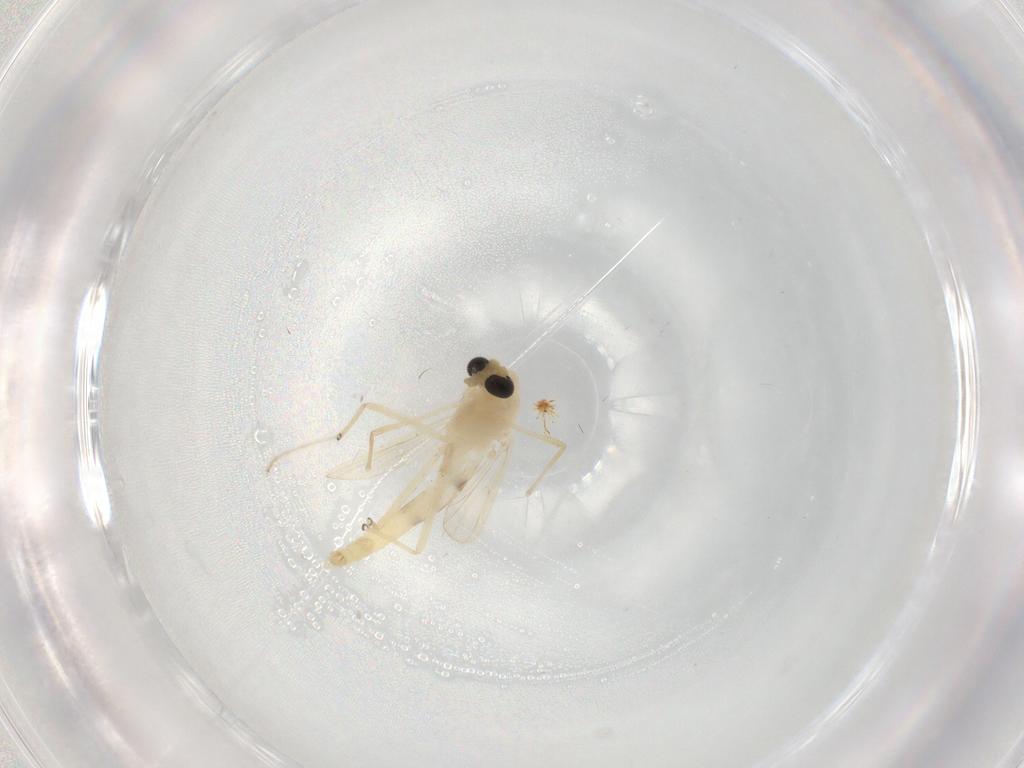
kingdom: Animalia
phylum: Arthropoda
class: Insecta
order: Diptera
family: Chironomidae
